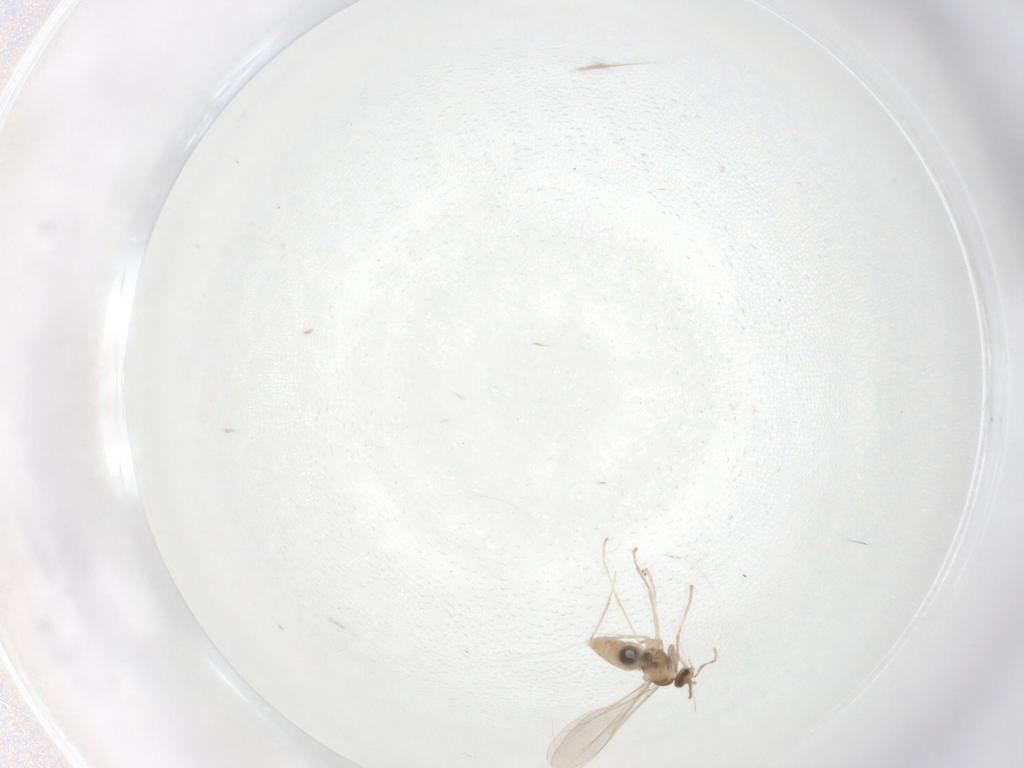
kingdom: Animalia
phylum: Arthropoda
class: Insecta
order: Diptera
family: Cecidomyiidae
